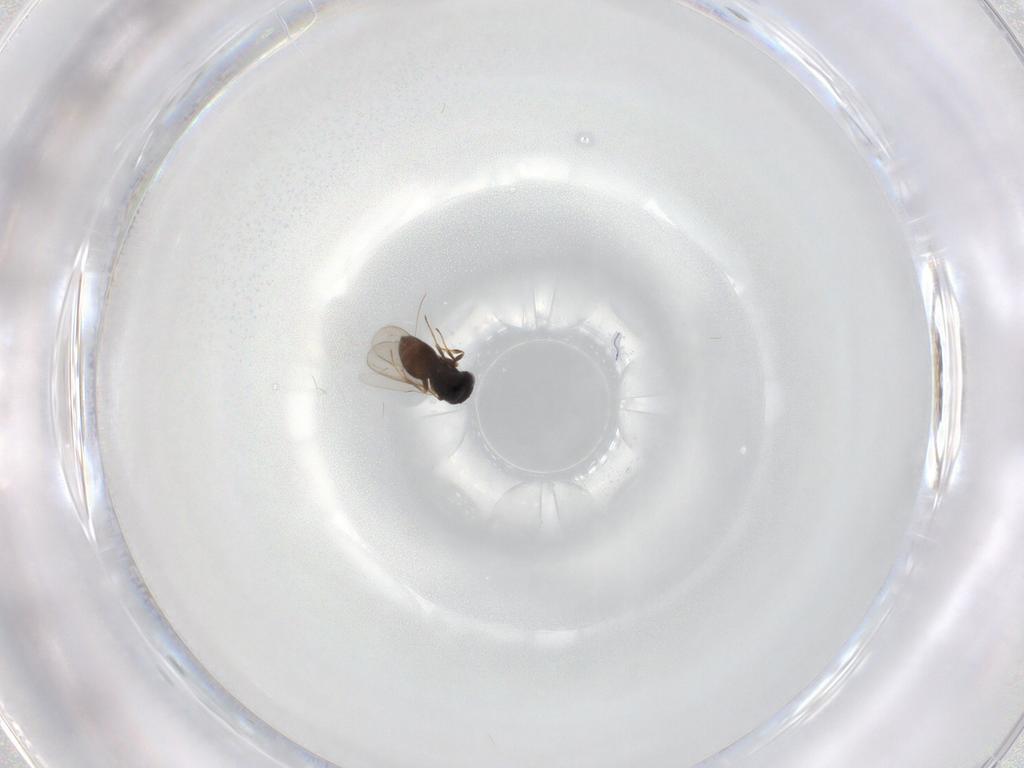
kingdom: Animalia
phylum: Arthropoda
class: Insecta
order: Hymenoptera
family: Scelionidae
